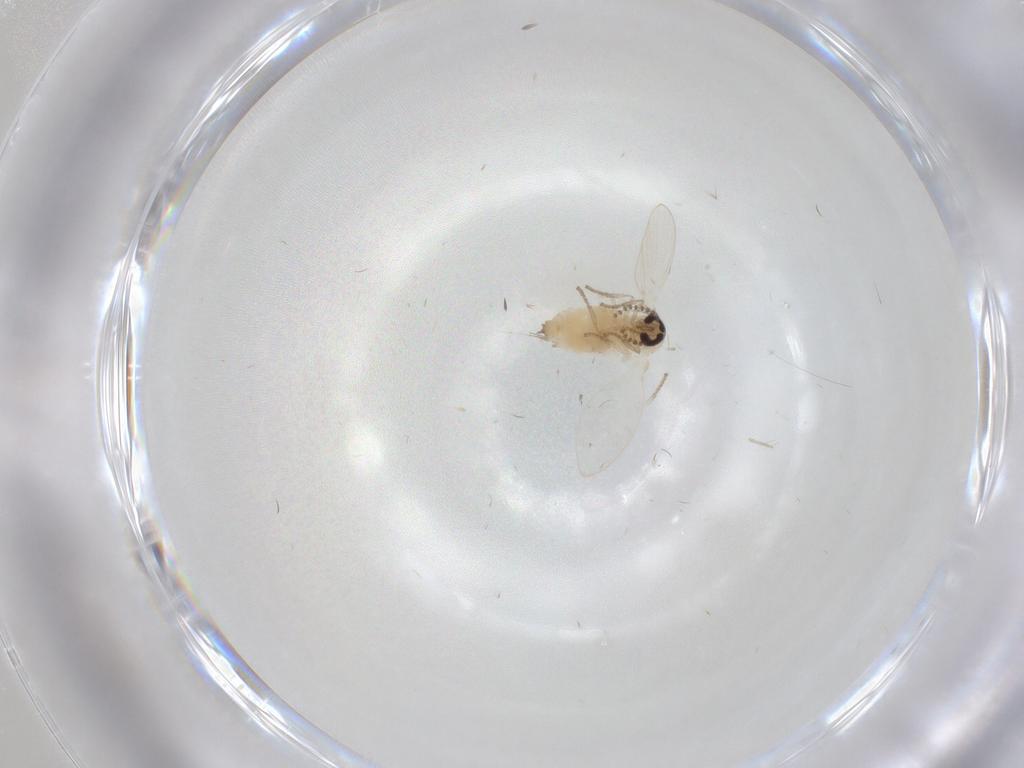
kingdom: Animalia
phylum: Arthropoda
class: Insecta
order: Diptera
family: Psychodidae
